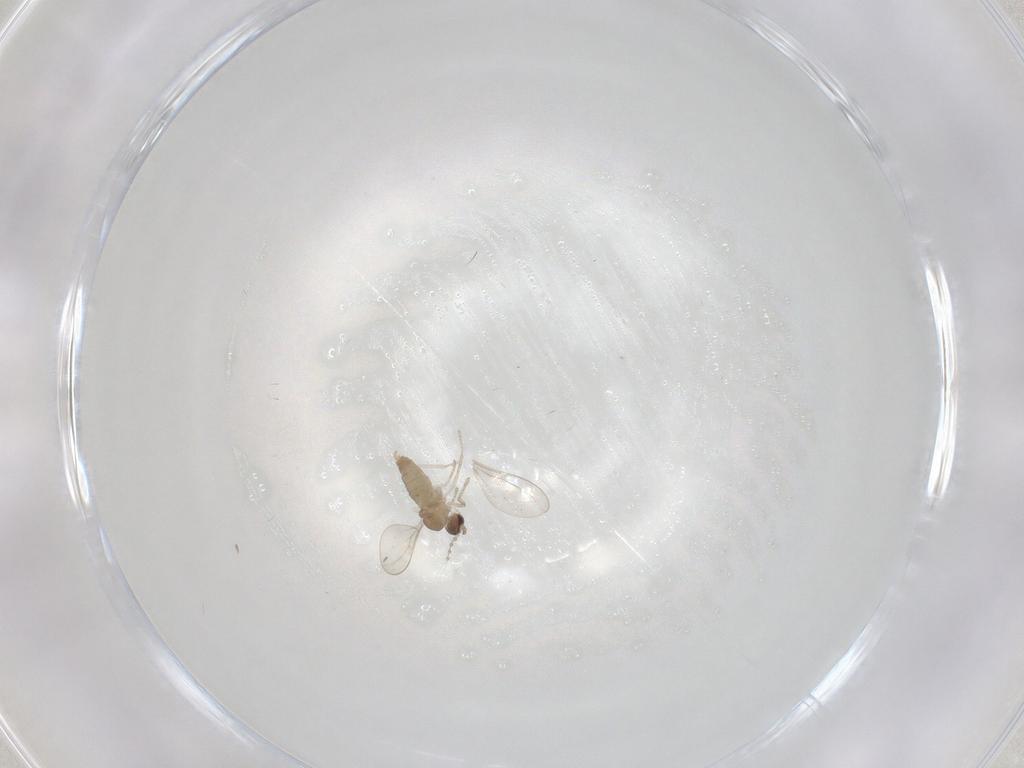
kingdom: Animalia
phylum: Arthropoda
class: Insecta
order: Diptera
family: Cecidomyiidae
